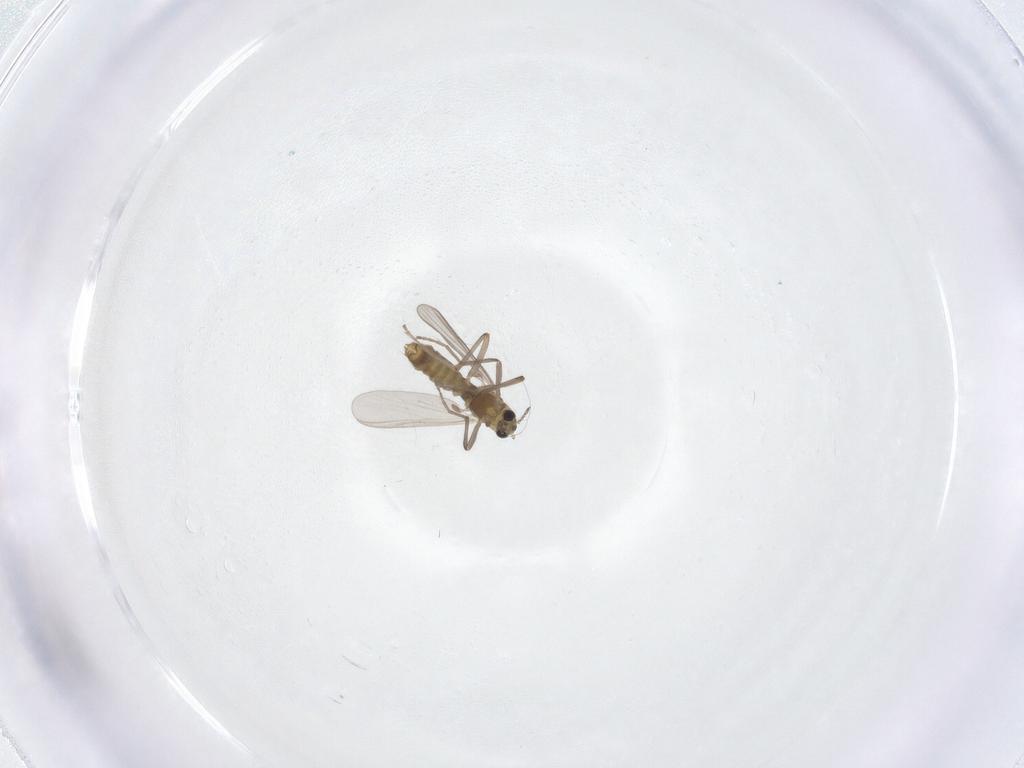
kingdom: Animalia
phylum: Arthropoda
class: Insecta
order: Diptera
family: Chironomidae
